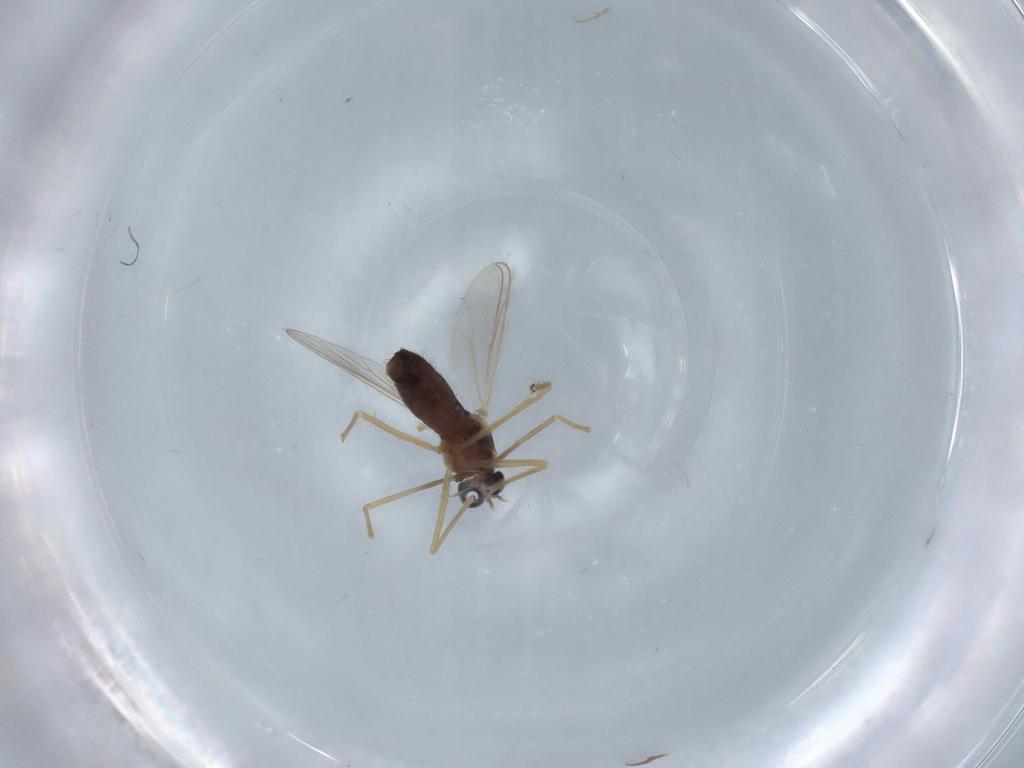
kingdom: Animalia
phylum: Arthropoda
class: Insecta
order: Diptera
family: Chironomidae
